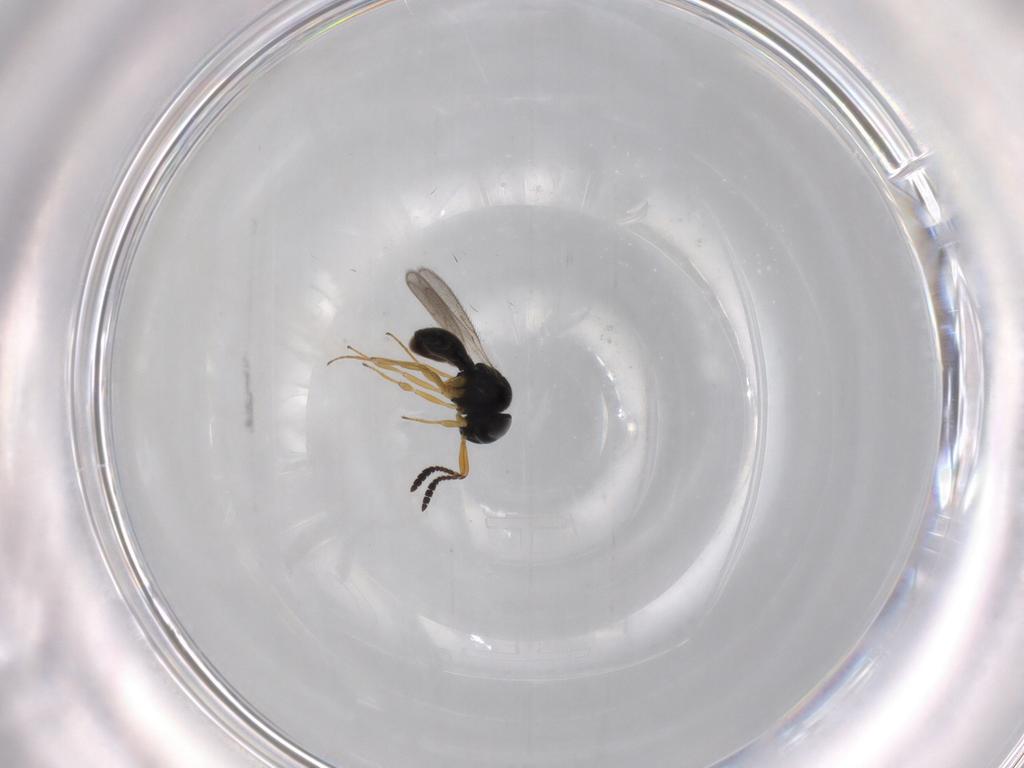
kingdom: Animalia
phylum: Arthropoda
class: Insecta
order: Hymenoptera
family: Scelionidae
